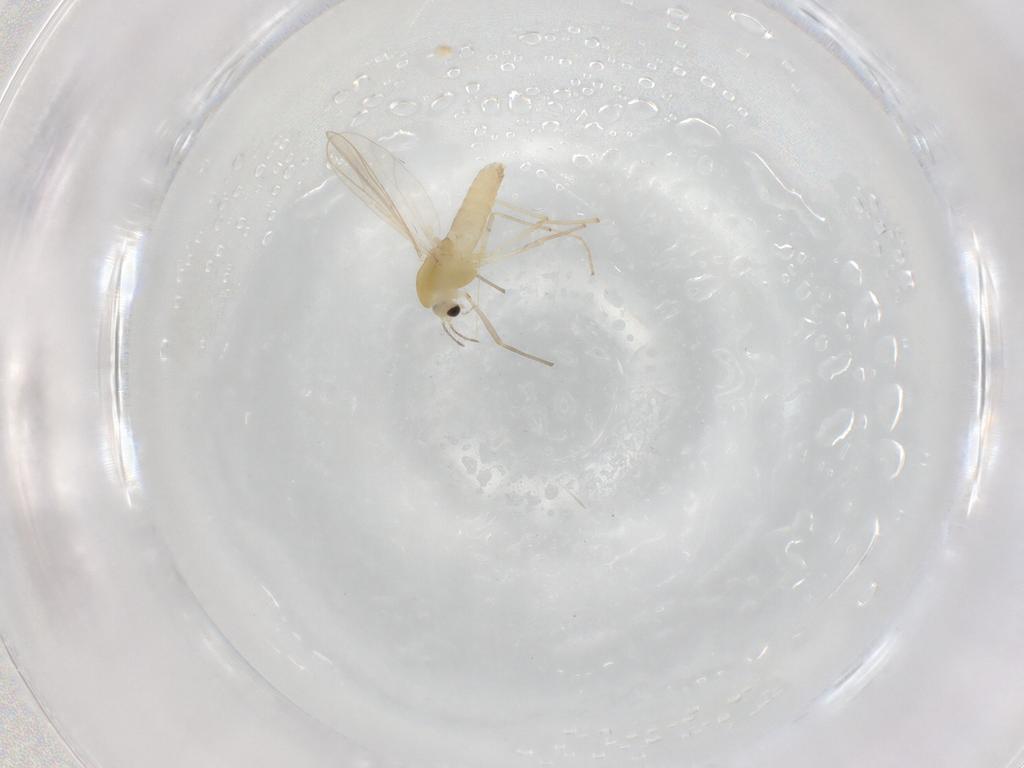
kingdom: Animalia
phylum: Arthropoda
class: Insecta
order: Diptera
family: Chironomidae
